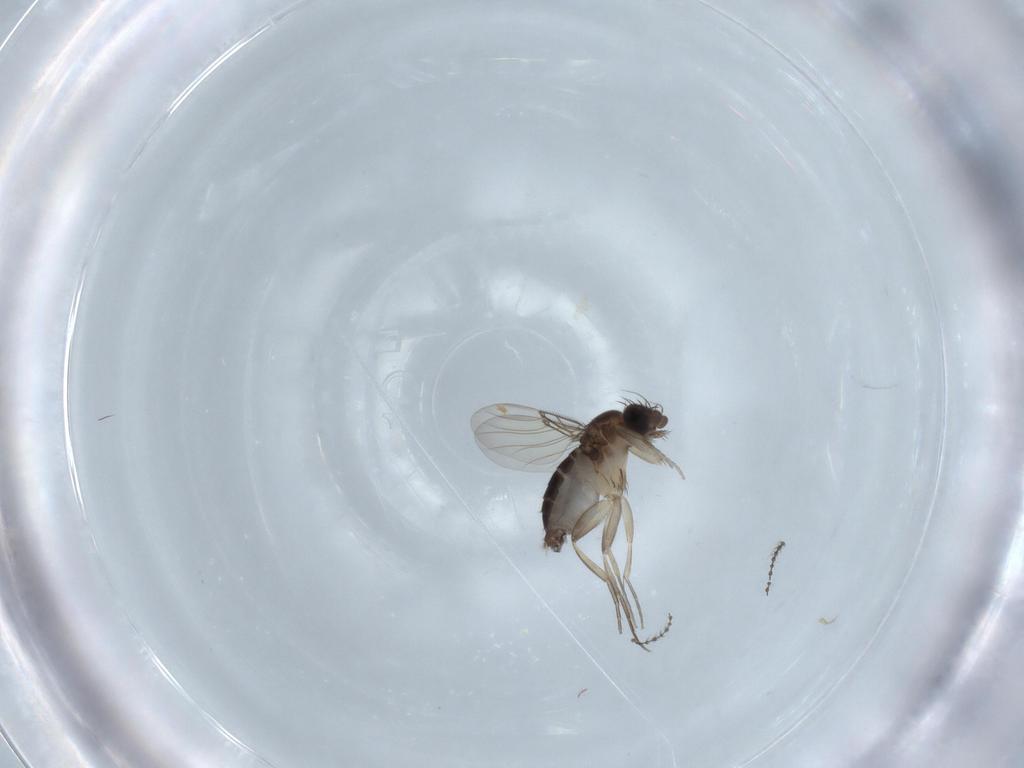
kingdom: Animalia
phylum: Arthropoda
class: Insecta
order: Diptera
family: Phoridae
